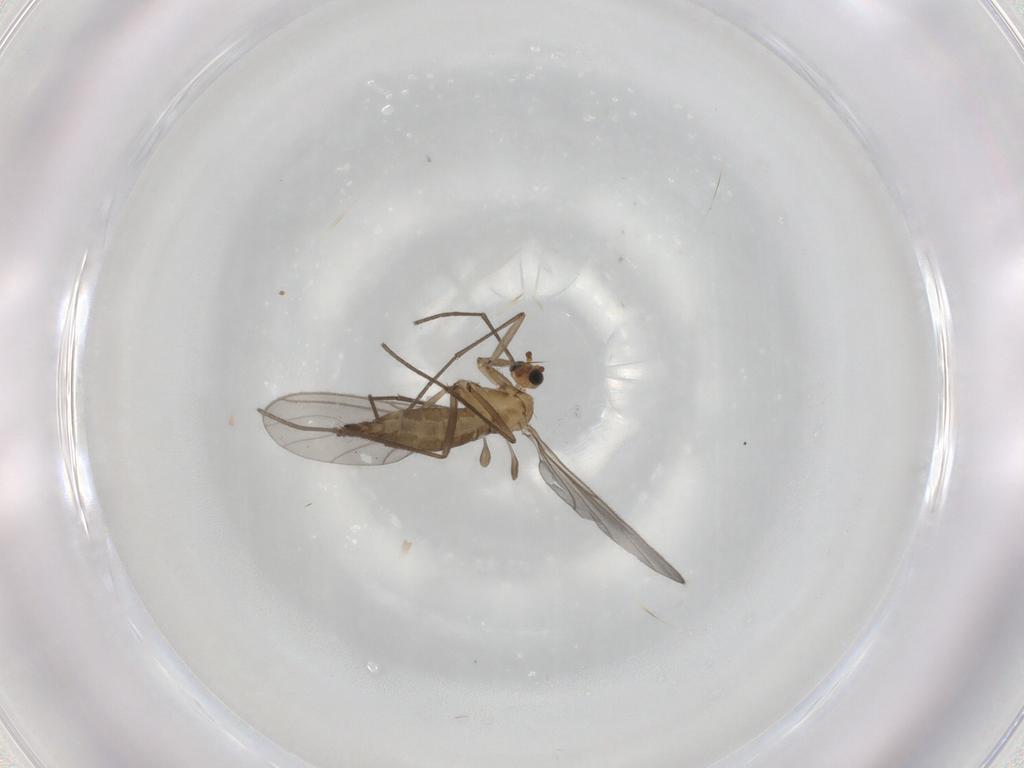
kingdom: Animalia
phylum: Arthropoda
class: Insecta
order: Diptera
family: Sciaridae
